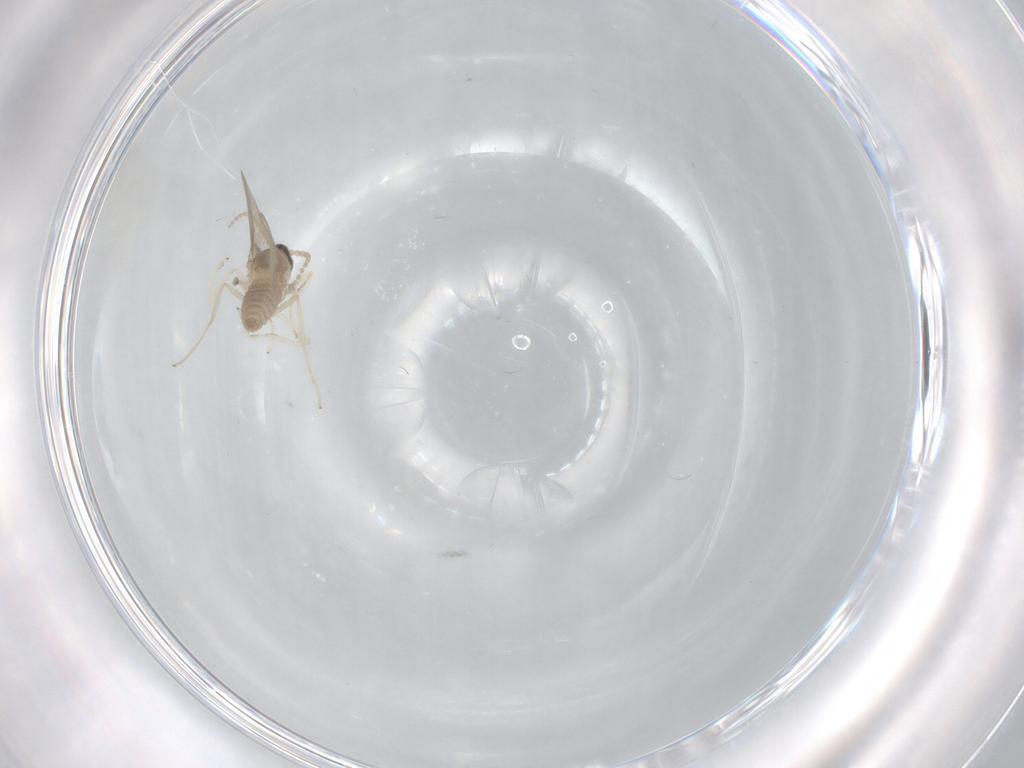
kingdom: Animalia
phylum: Arthropoda
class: Insecta
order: Diptera
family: Cecidomyiidae
